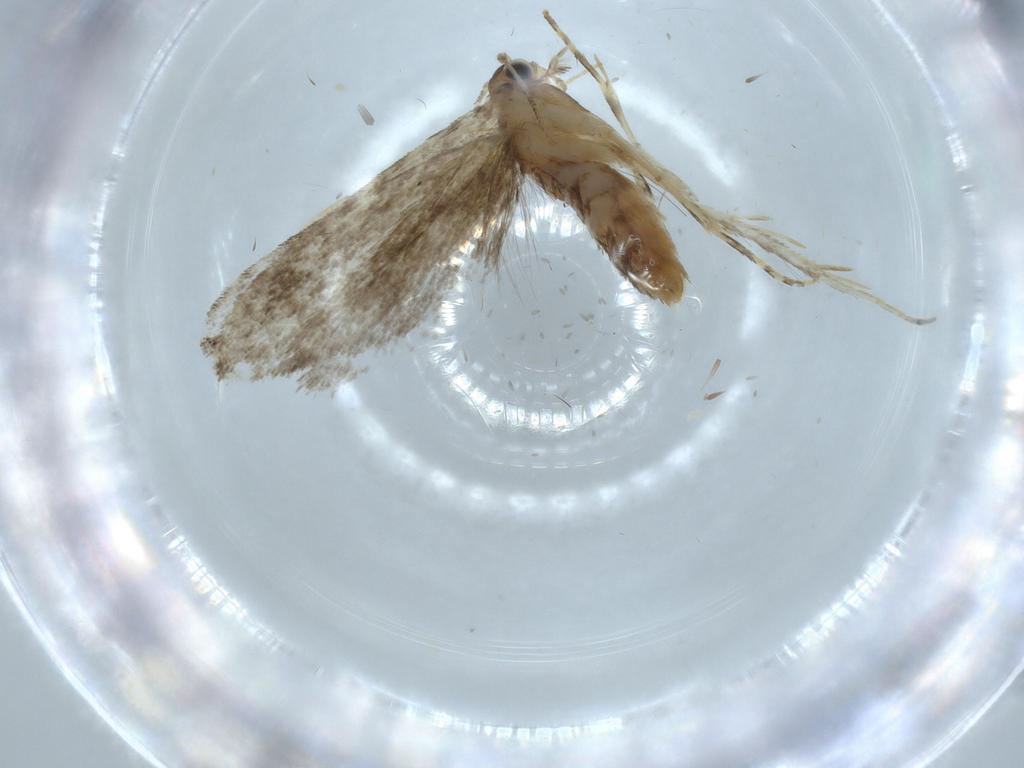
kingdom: Animalia
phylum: Arthropoda
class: Insecta
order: Lepidoptera
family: Tineidae
